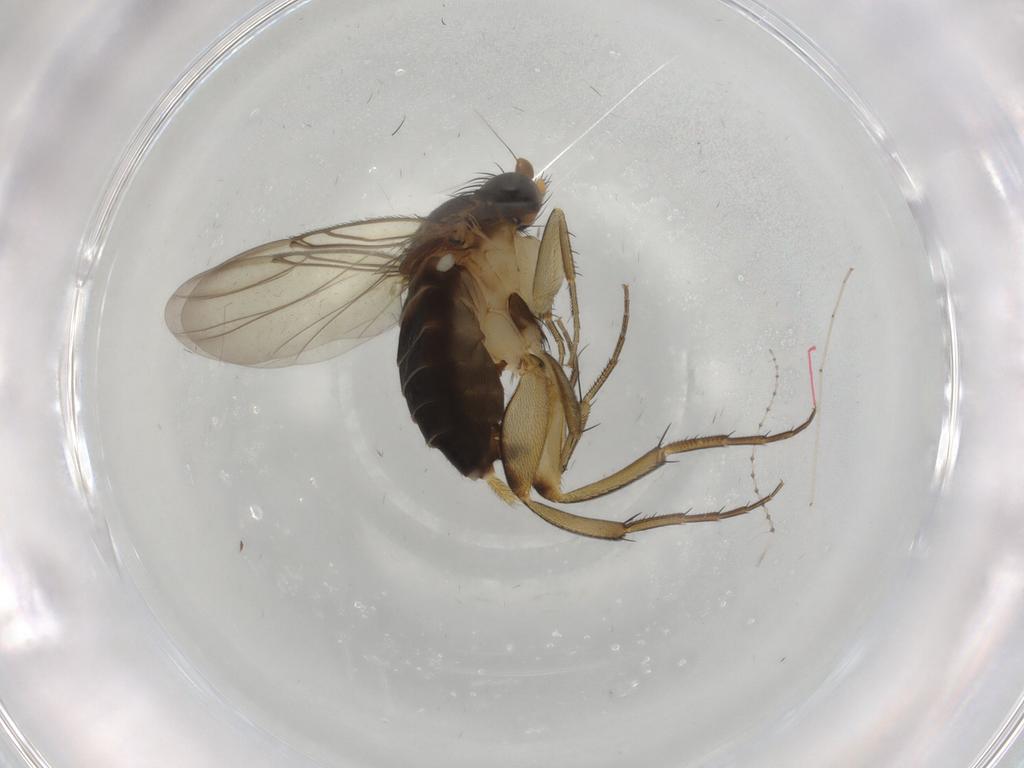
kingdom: Animalia
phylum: Arthropoda
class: Insecta
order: Diptera
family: Phoridae
